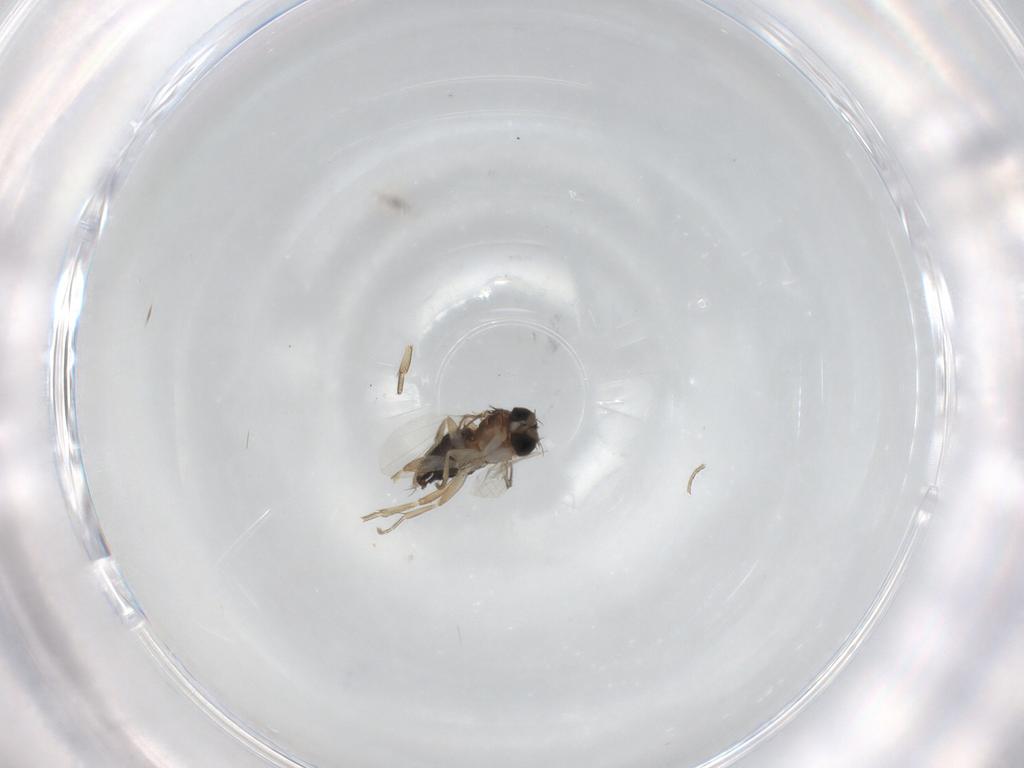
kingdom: Animalia
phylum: Arthropoda
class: Insecta
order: Diptera
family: Phoridae
